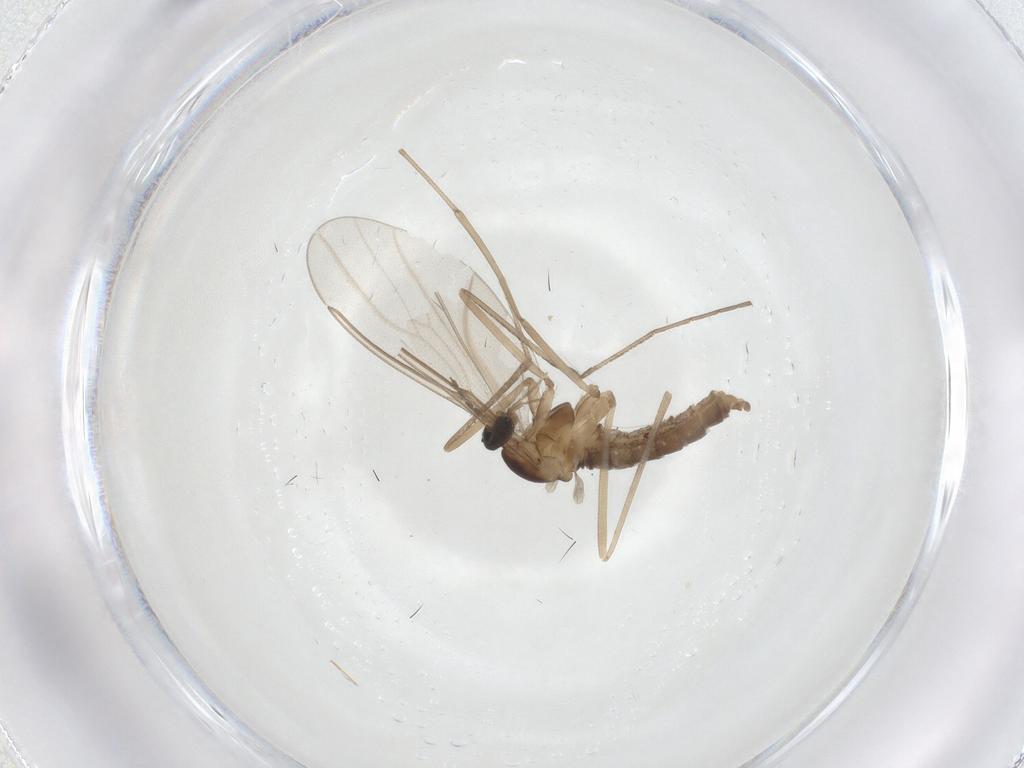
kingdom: Animalia
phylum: Arthropoda
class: Insecta
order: Diptera
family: Cecidomyiidae
